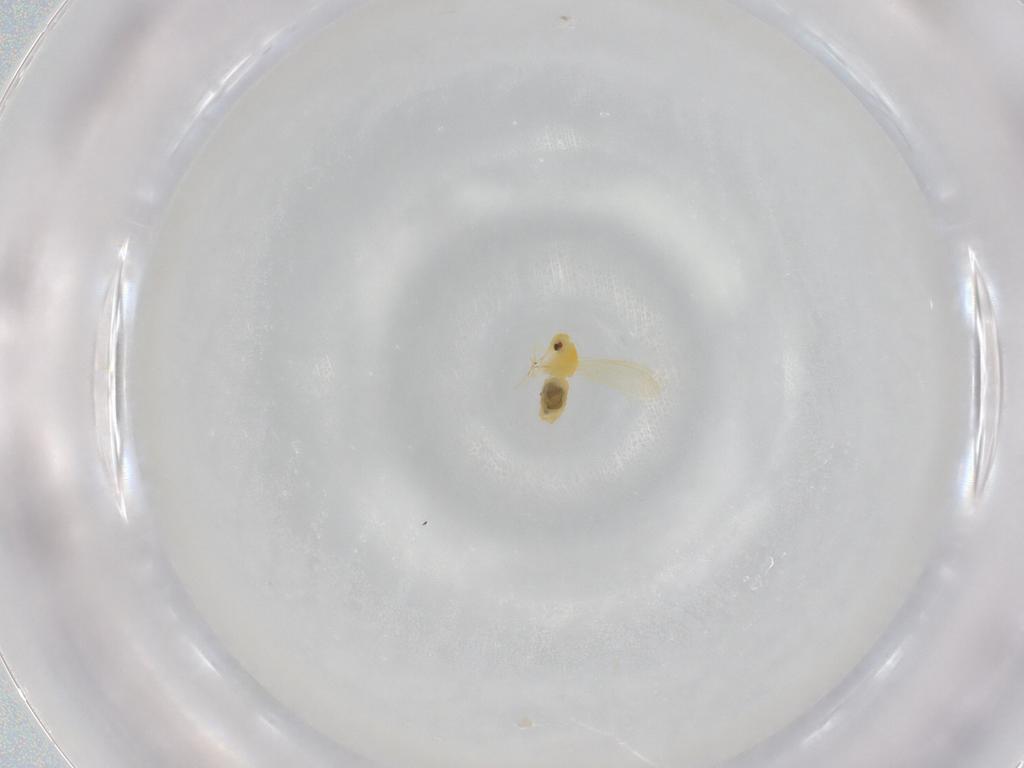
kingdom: Animalia
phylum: Arthropoda
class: Insecta
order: Hemiptera
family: Aleyrodidae
